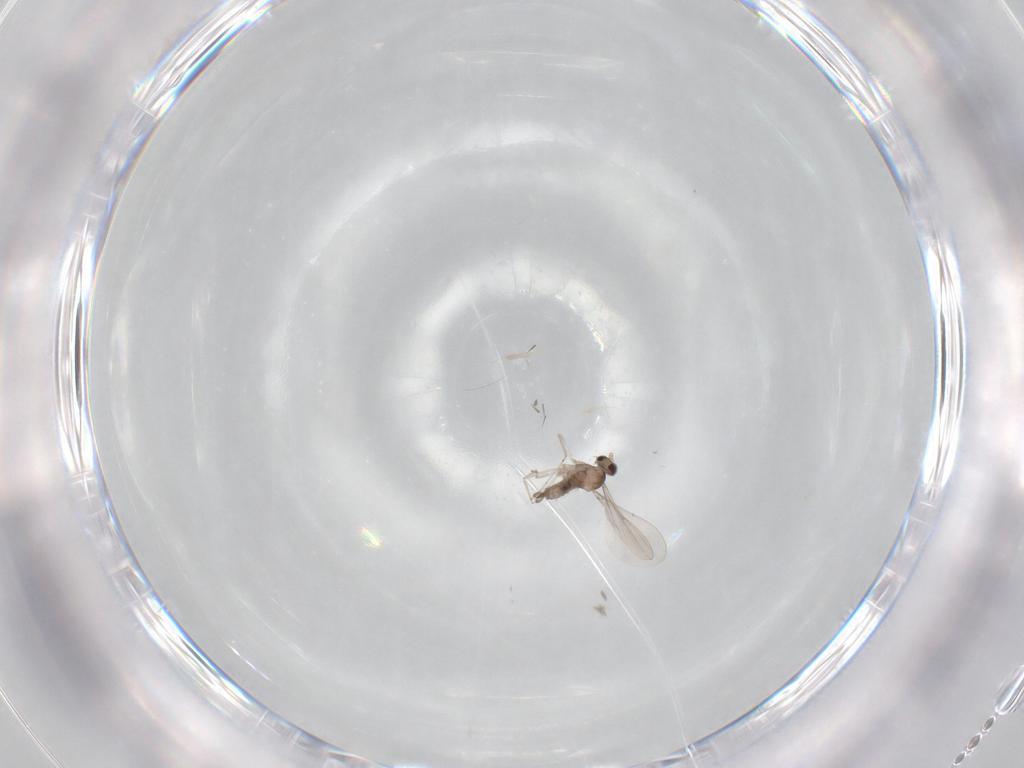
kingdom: Animalia
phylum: Arthropoda
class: Insecta
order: Diptera
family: Cecidomyiidae
